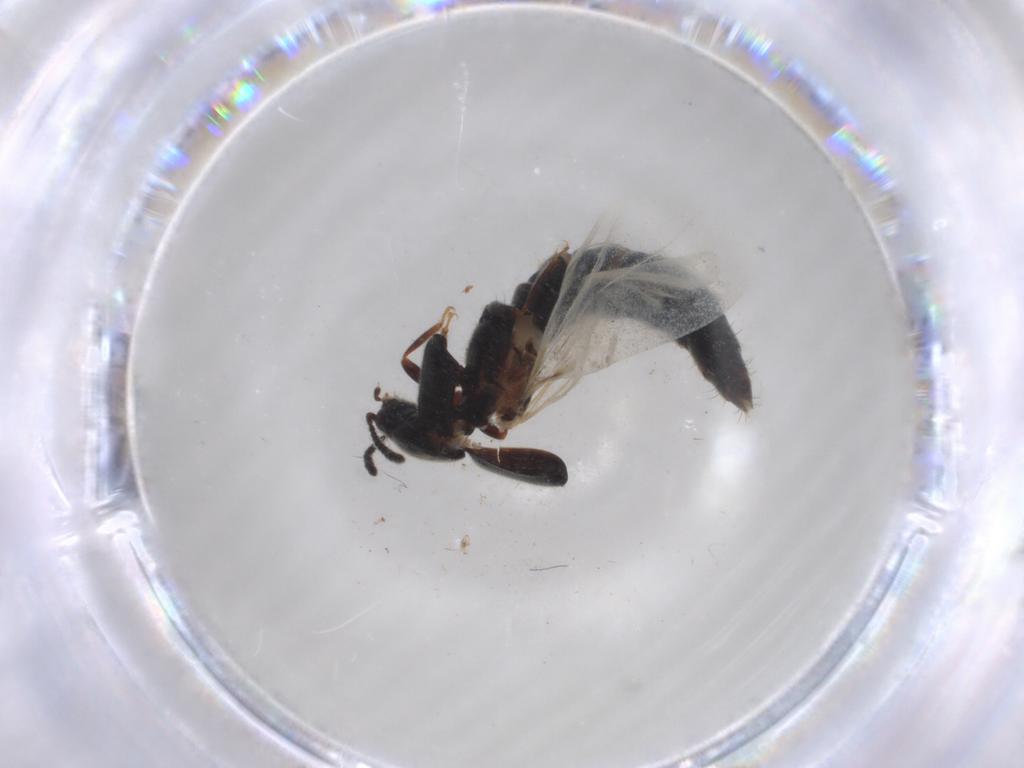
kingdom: Animalia
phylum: Arthropoda
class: Insecta
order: Coleoptera
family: Staphylinidae
